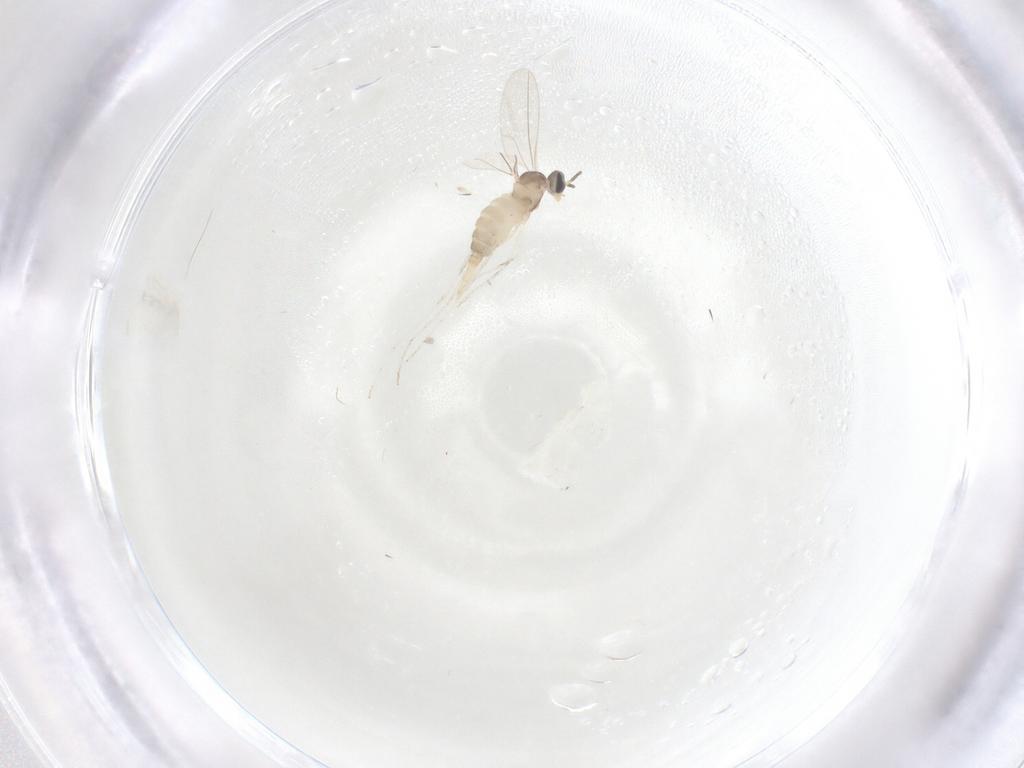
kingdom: Animalia
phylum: Arthropoda
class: Insecta
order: Diptera
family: Cecidomyiidae
